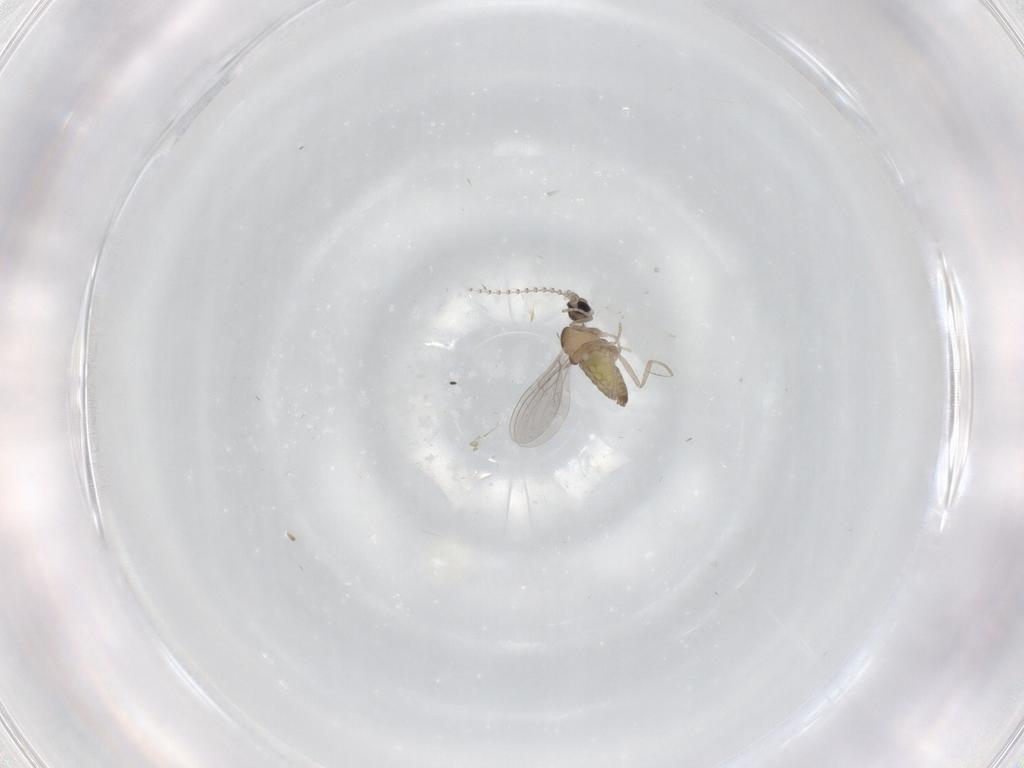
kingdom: Animalia
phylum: Arthropoda
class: Insecta
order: Diptera
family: Cecidomyiidae
